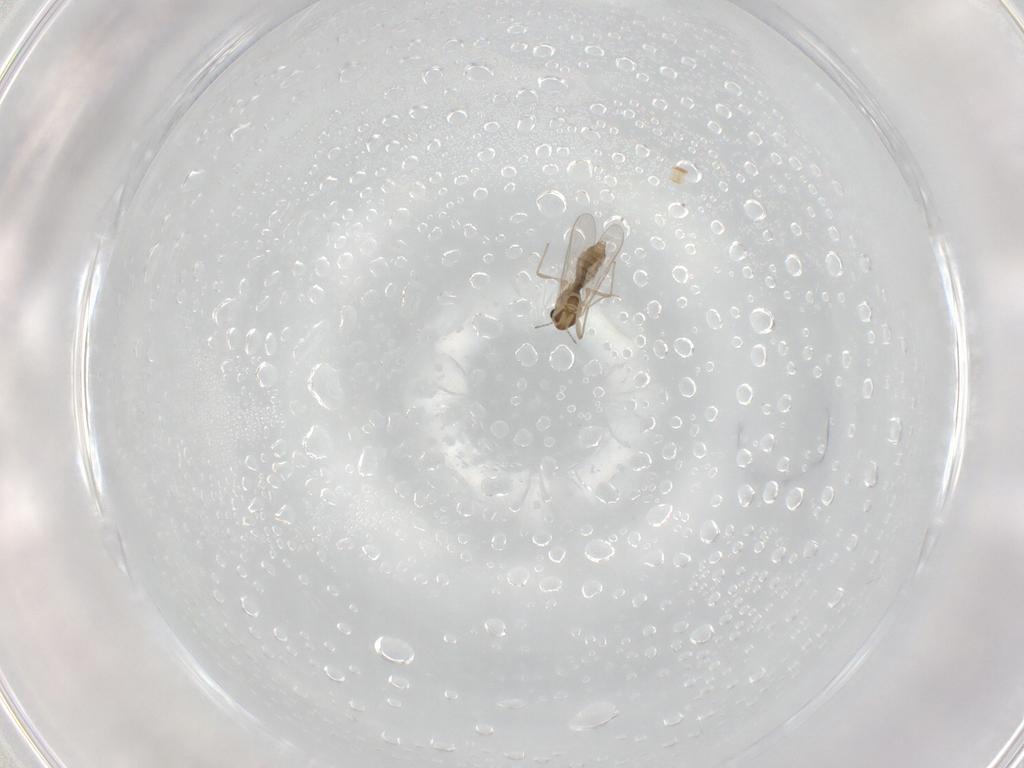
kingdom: Animalia
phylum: Arthropoda
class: Insecta
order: Diptera
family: Chironomidae
